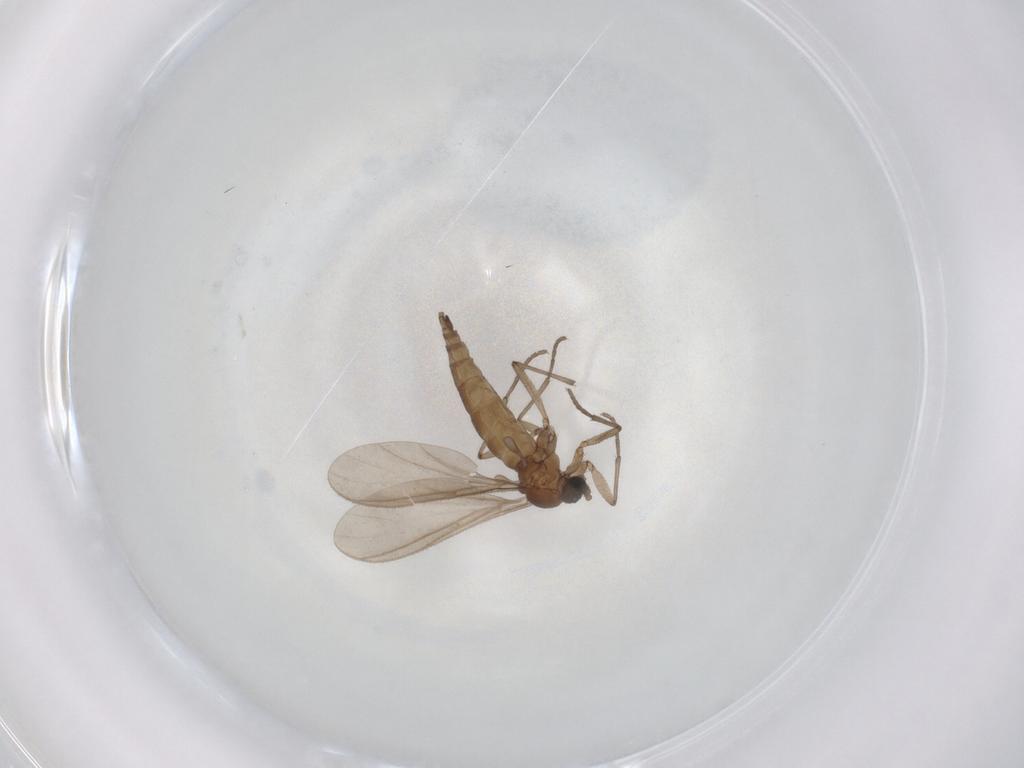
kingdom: Animalia
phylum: Arthropoda
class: Insecta
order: Diptera
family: Sciaridae
